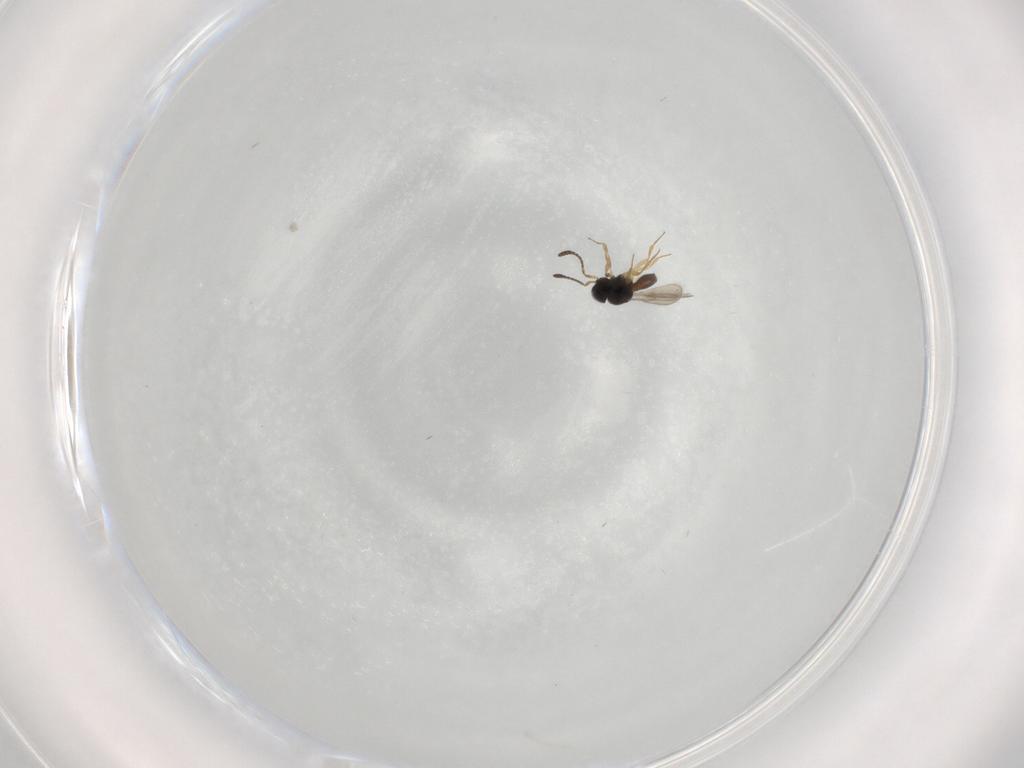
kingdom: Animalia
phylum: Arthropoda
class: Insecta
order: Hymenoptera
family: Scelionidae
